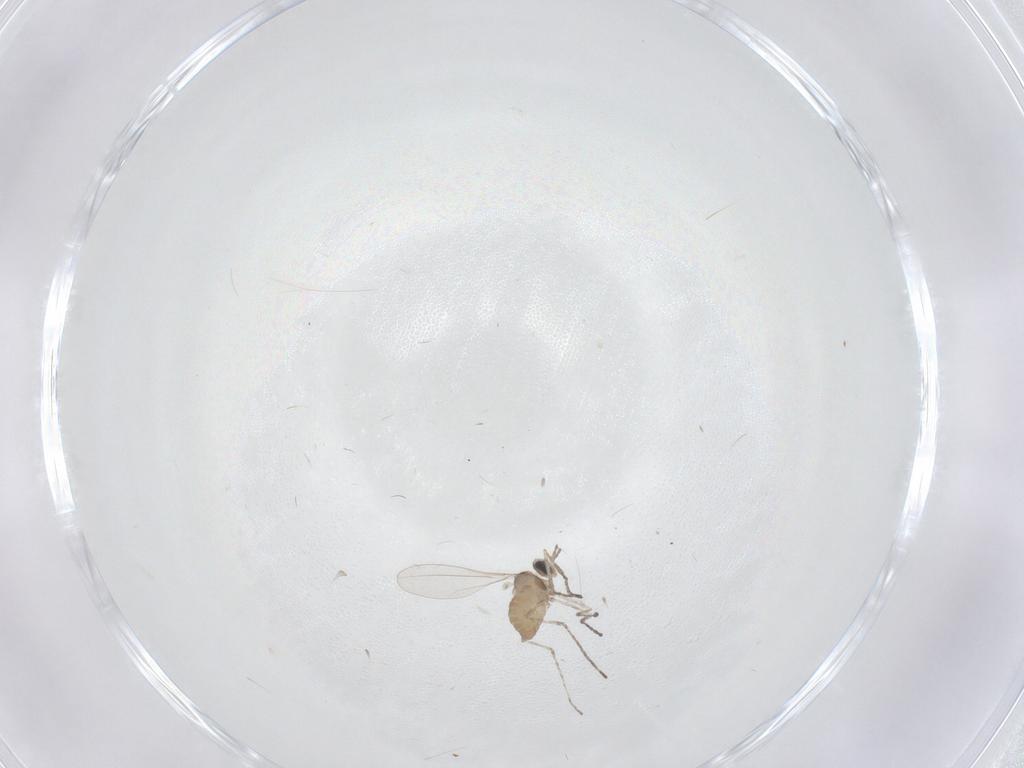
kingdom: Animalia
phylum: Arthropoda
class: Insecta
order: Diptera
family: Cecidomyiidae
